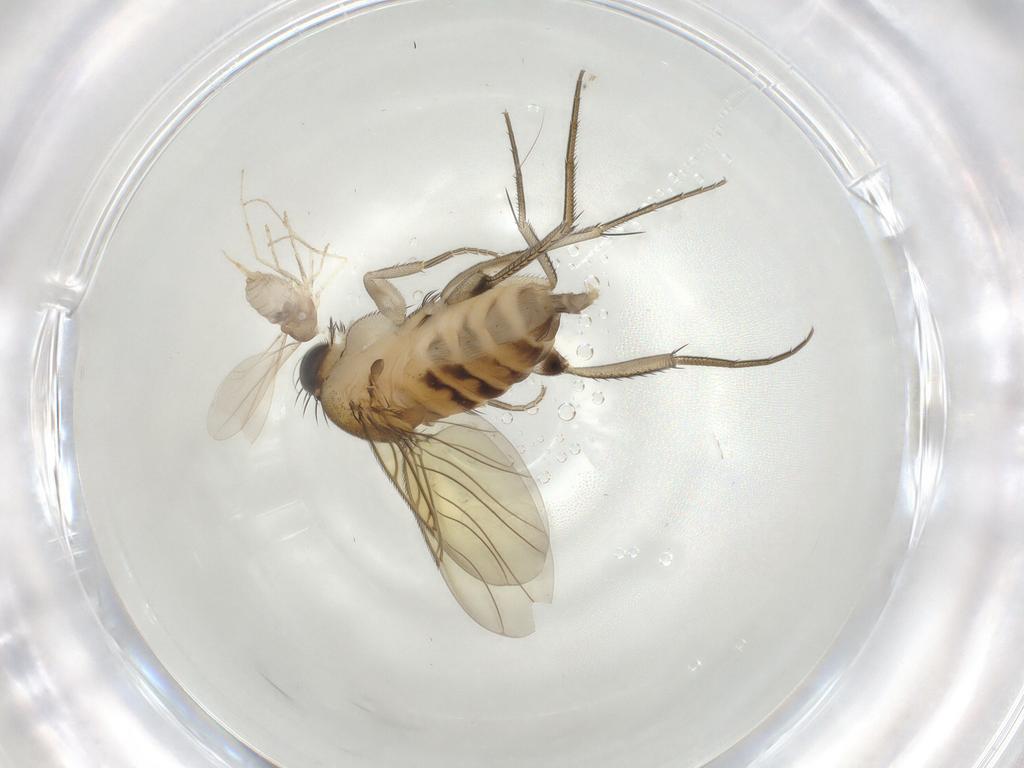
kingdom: Animalia
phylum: Arthropoda
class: Insecta
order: Diptera
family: Phoridae
